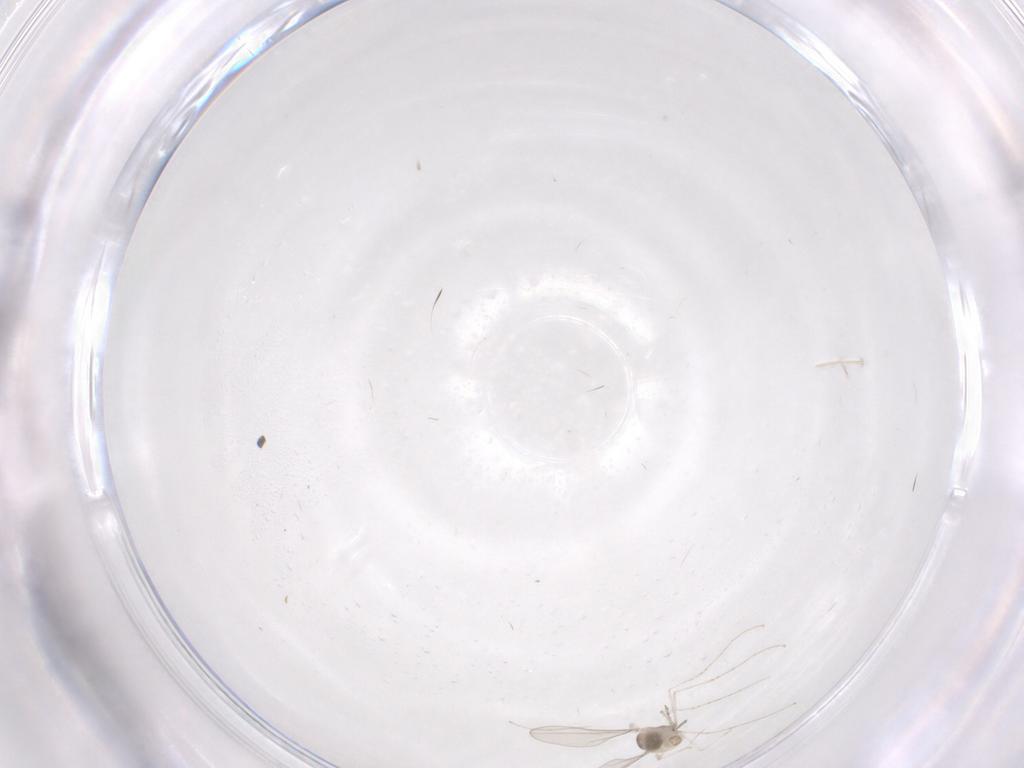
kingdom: Animalia
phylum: Arthropoda
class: Insecta
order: Diptera
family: Cecidomyiidae
